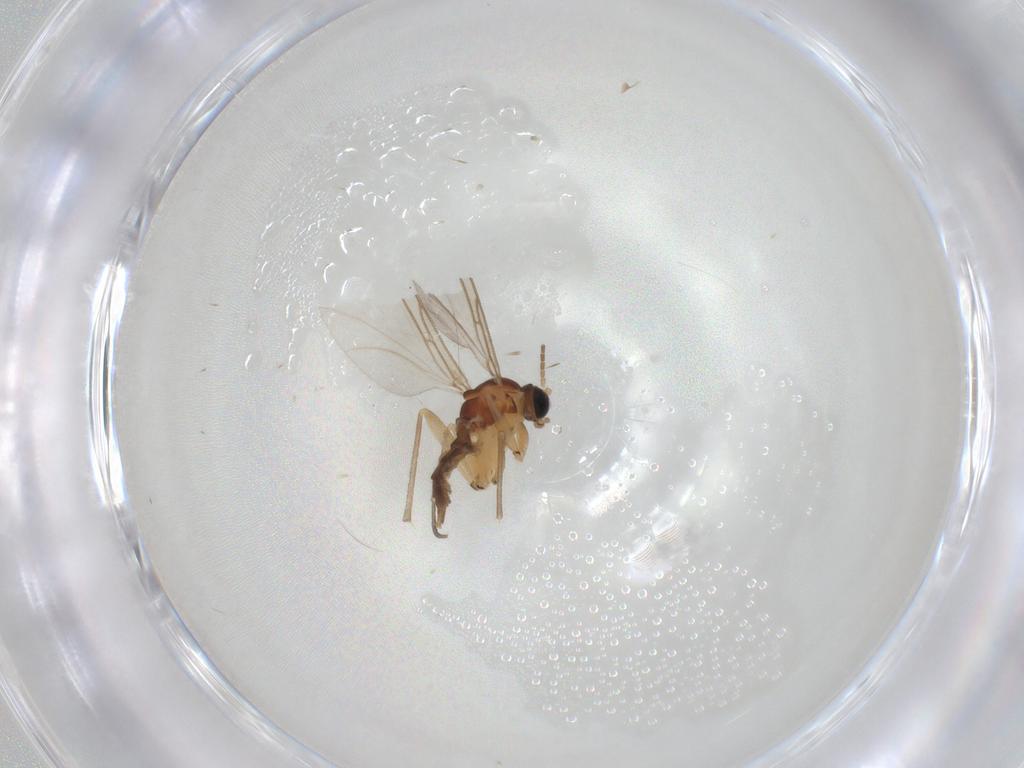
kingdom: Animalia
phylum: Arthropoda
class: Insecta
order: Diptera
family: Sciaridae
